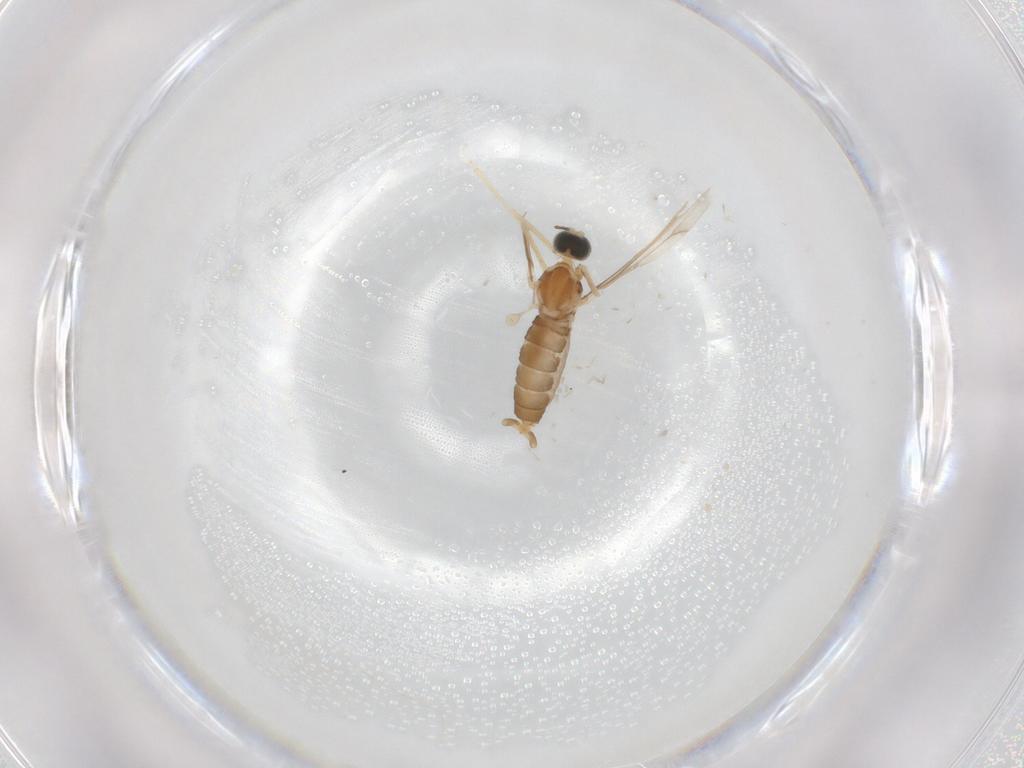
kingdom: Animalia
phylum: Arthropoda
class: Insecta
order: Diptera
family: Cecidomyiidae
